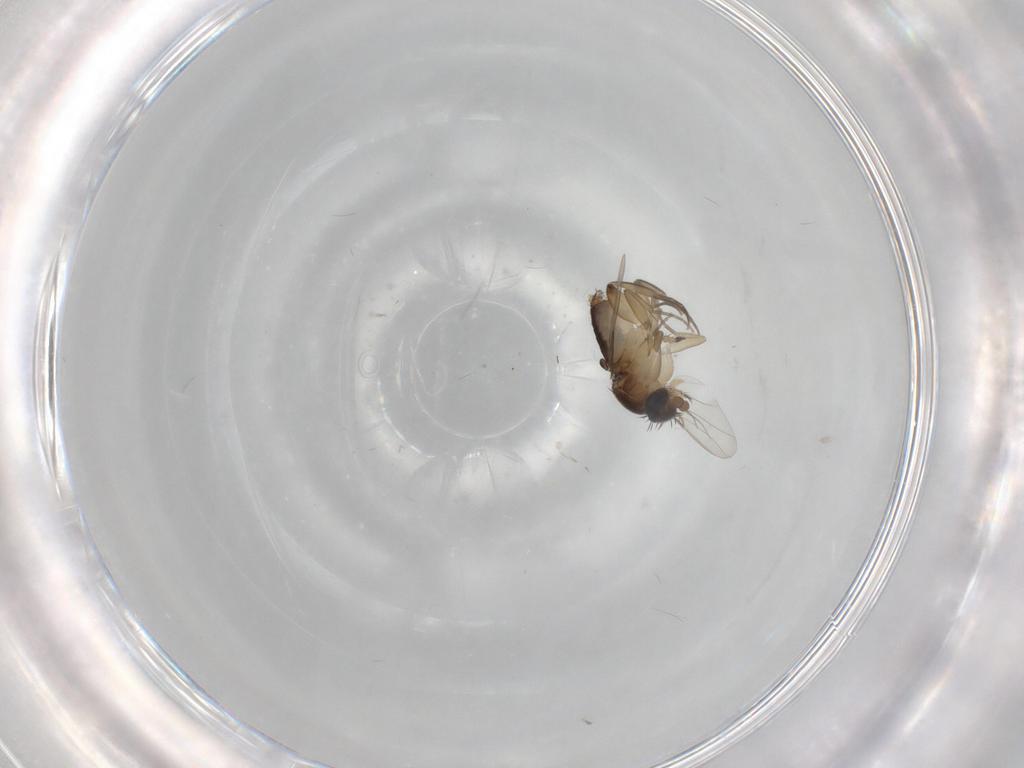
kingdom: Animalia
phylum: Arthropoda
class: Insecta
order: Diptera
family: Phoridae
